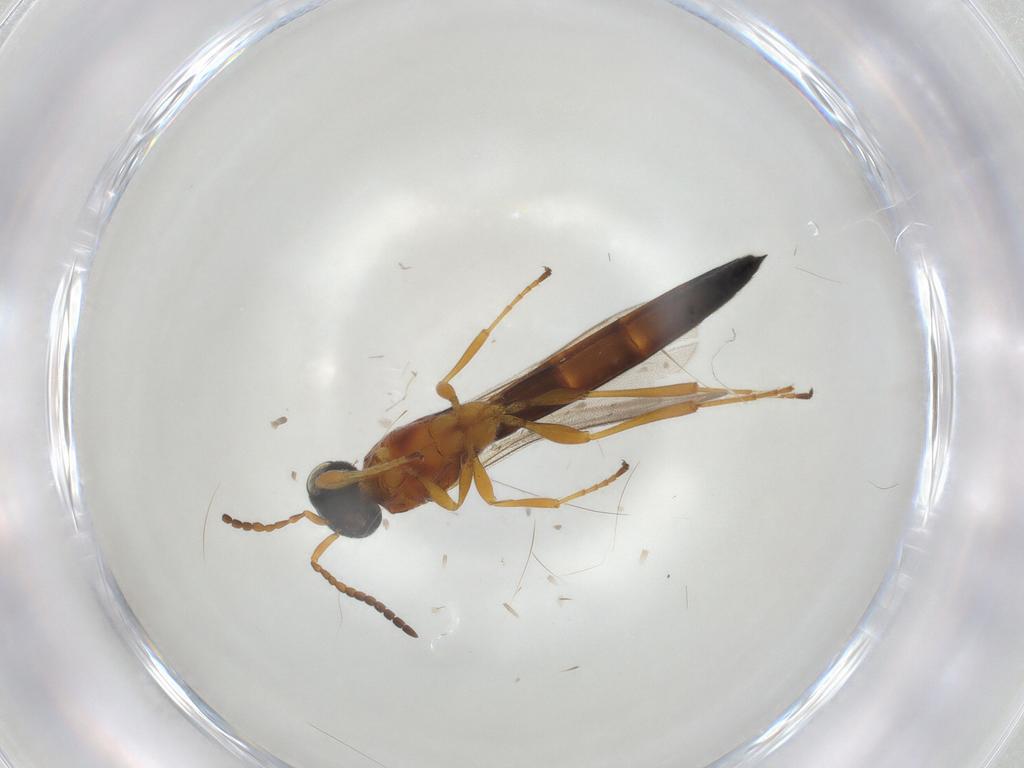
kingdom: Animalia
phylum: Arthropoda
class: Insecta
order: Hymenoptera
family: Scelionidae
